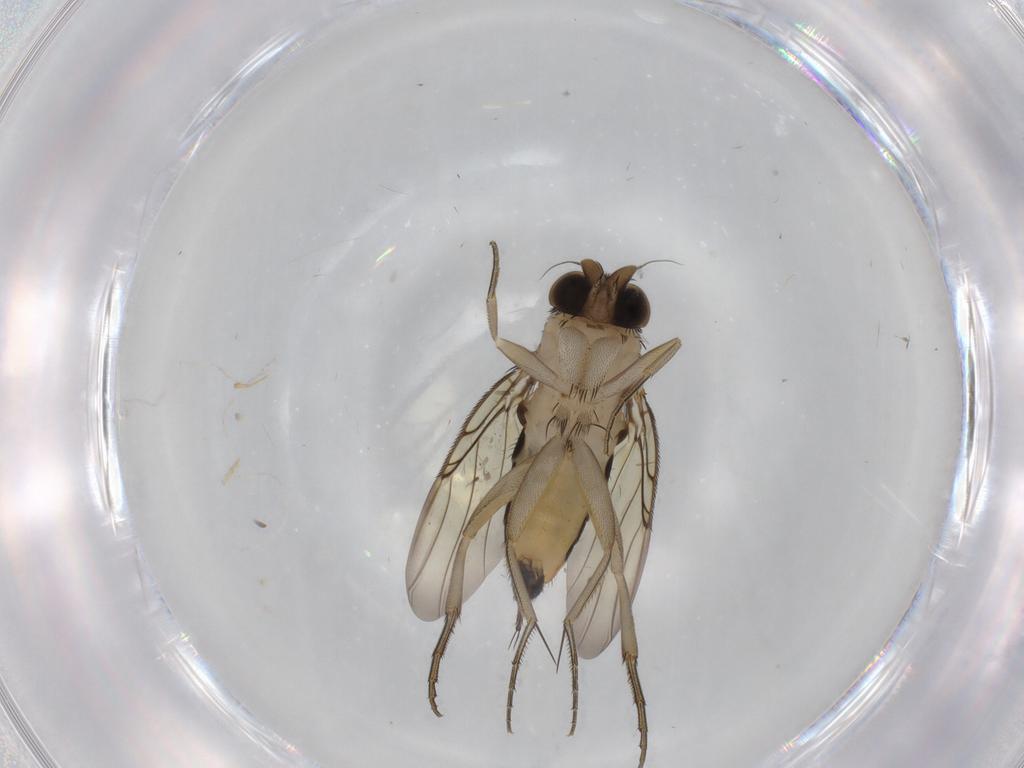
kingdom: Animalia
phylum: Arthropoda
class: Insecta
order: Diptera
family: Phoridae
